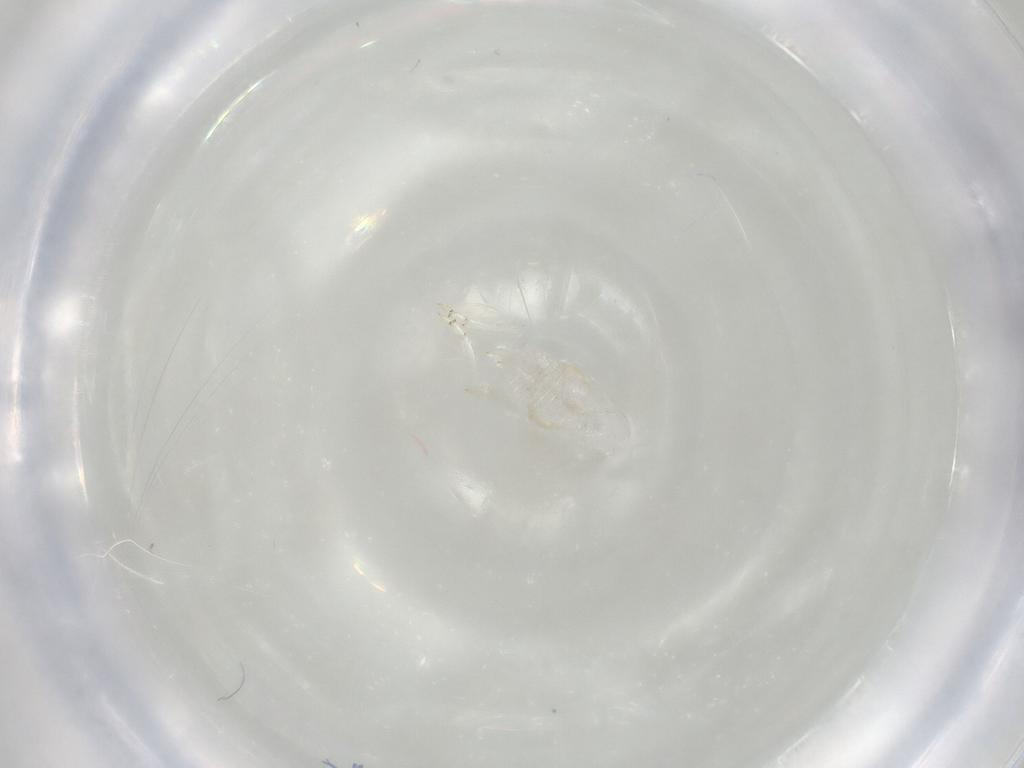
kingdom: Animalia
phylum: Arthropoda
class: Insecta
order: Hemiptera
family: Flatidae
